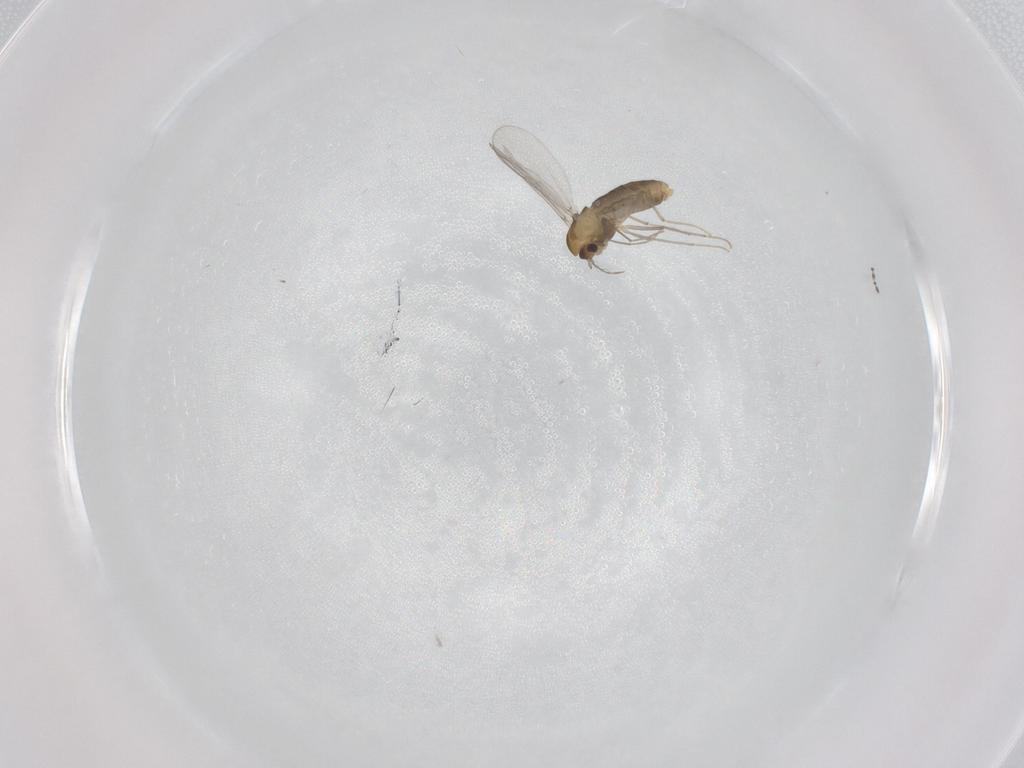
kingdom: Animalia
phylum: Arthropoda
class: Insecta
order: Diptera
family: Chironomidae
